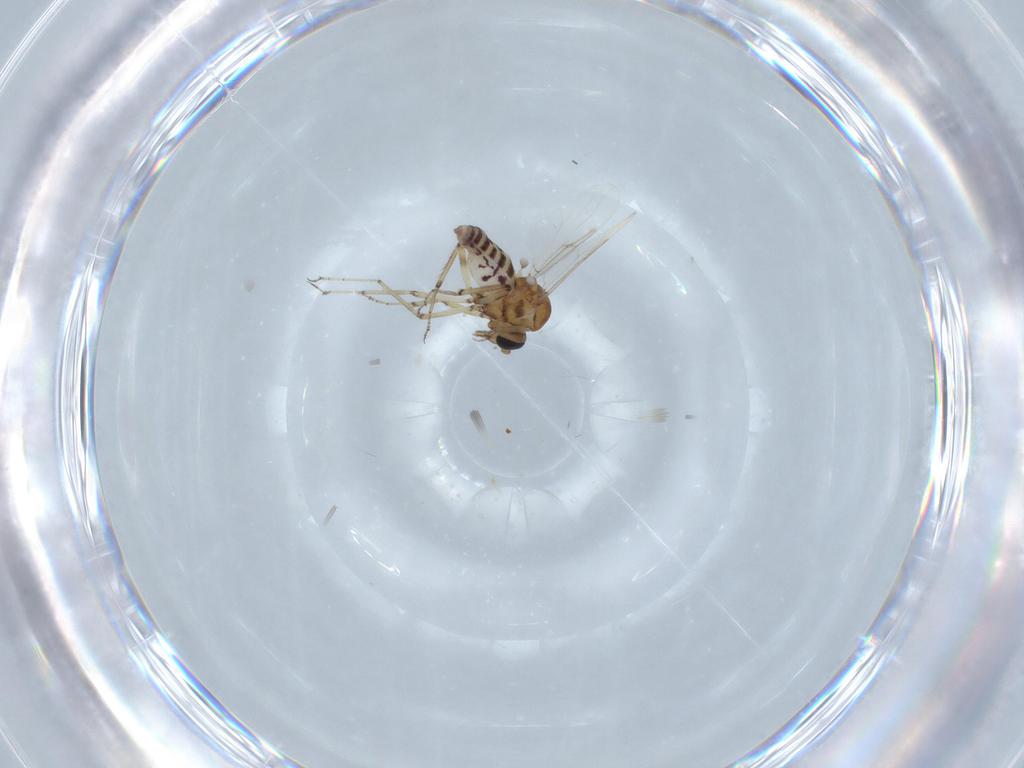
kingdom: Animalia
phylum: Arthropoda
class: Insecta
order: Diptera
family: Ceratopogonidae
